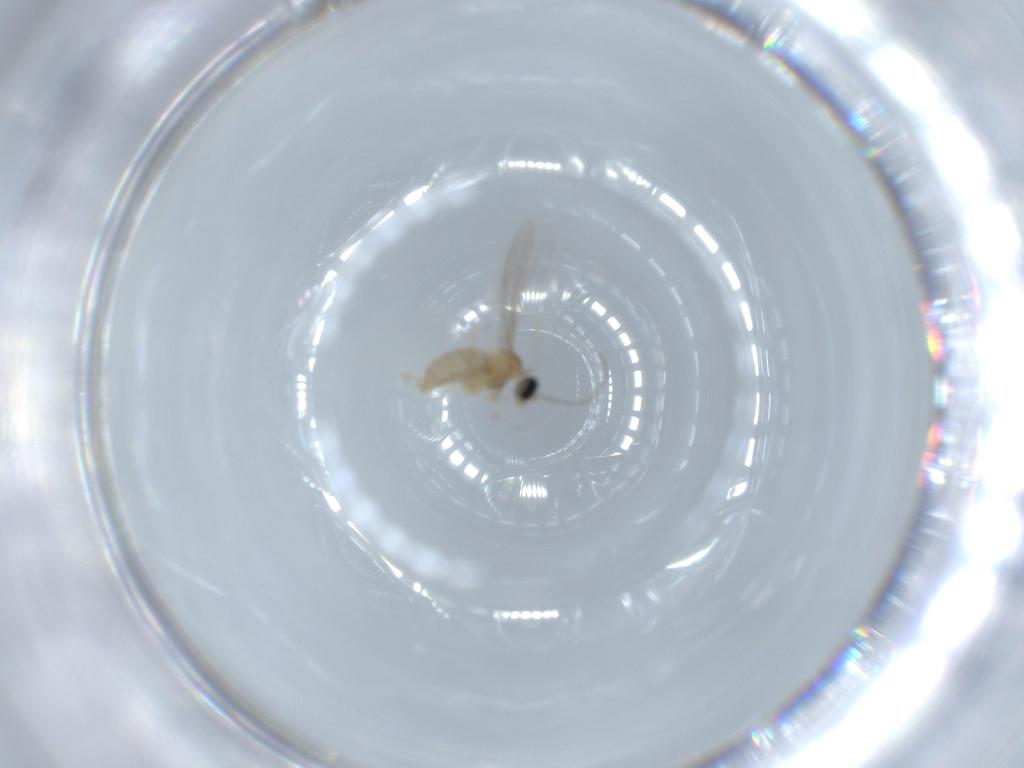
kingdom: Animalia
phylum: Arthropoda
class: Insecta
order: Diptera
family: Cecidomyiidae
